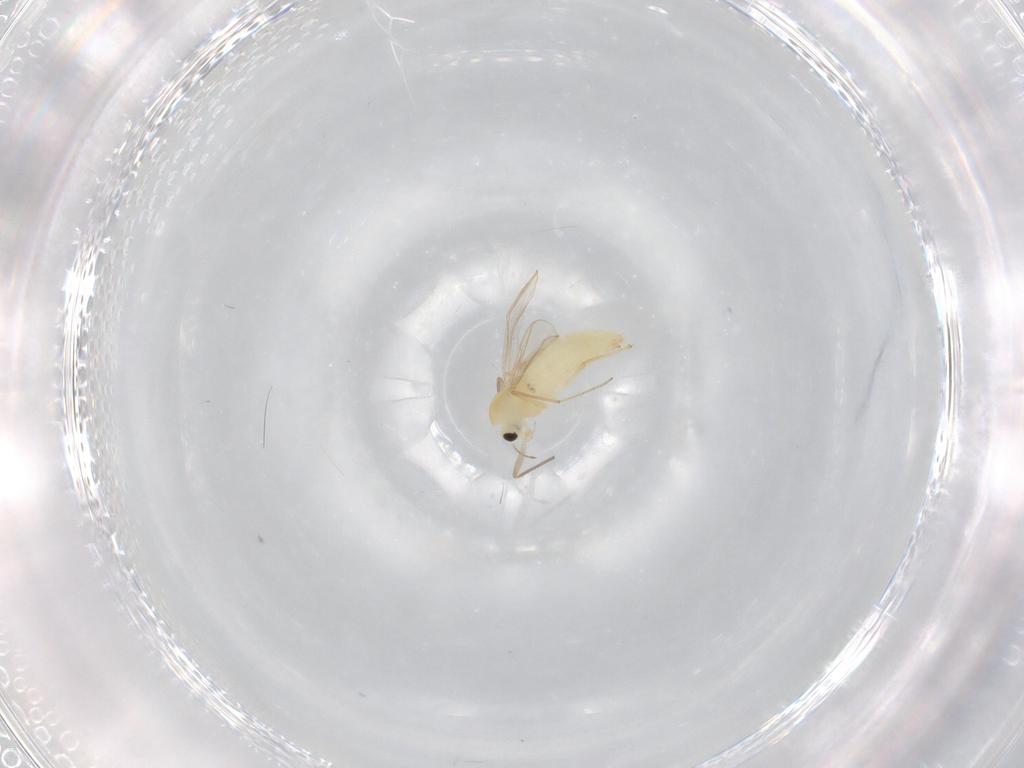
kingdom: Animalia
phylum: Arthropoda
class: Insecta
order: Diptera
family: Chironomidae
